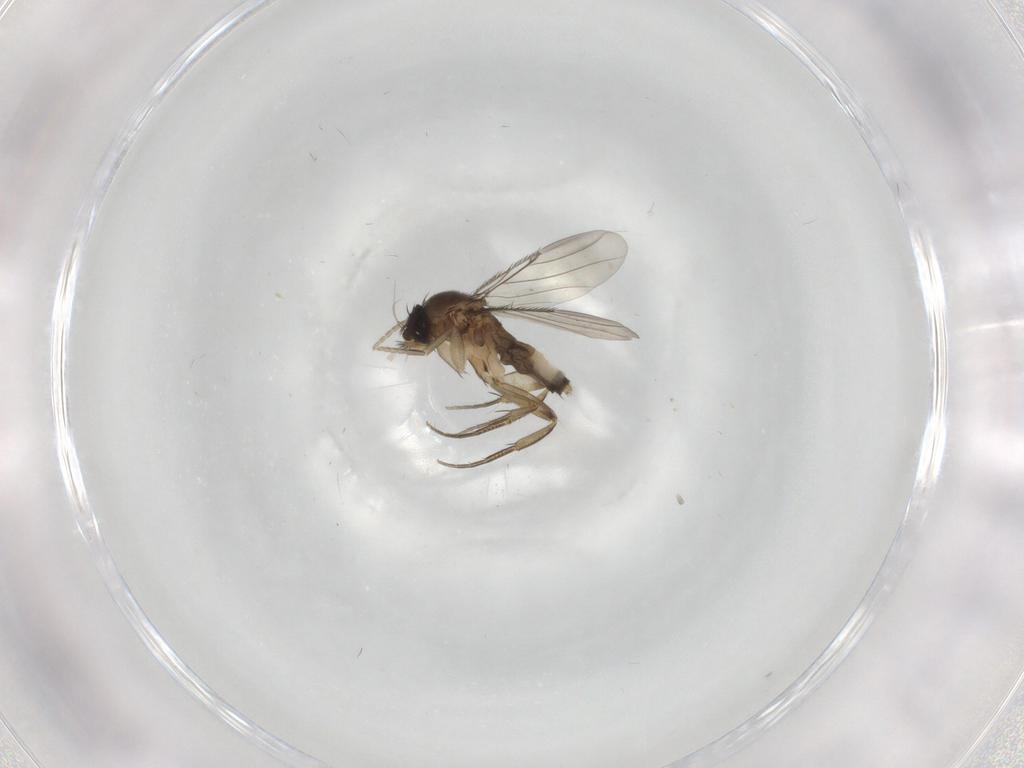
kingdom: Animalia
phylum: Arthropoda
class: Insecta
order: Diptera
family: Phoridae
